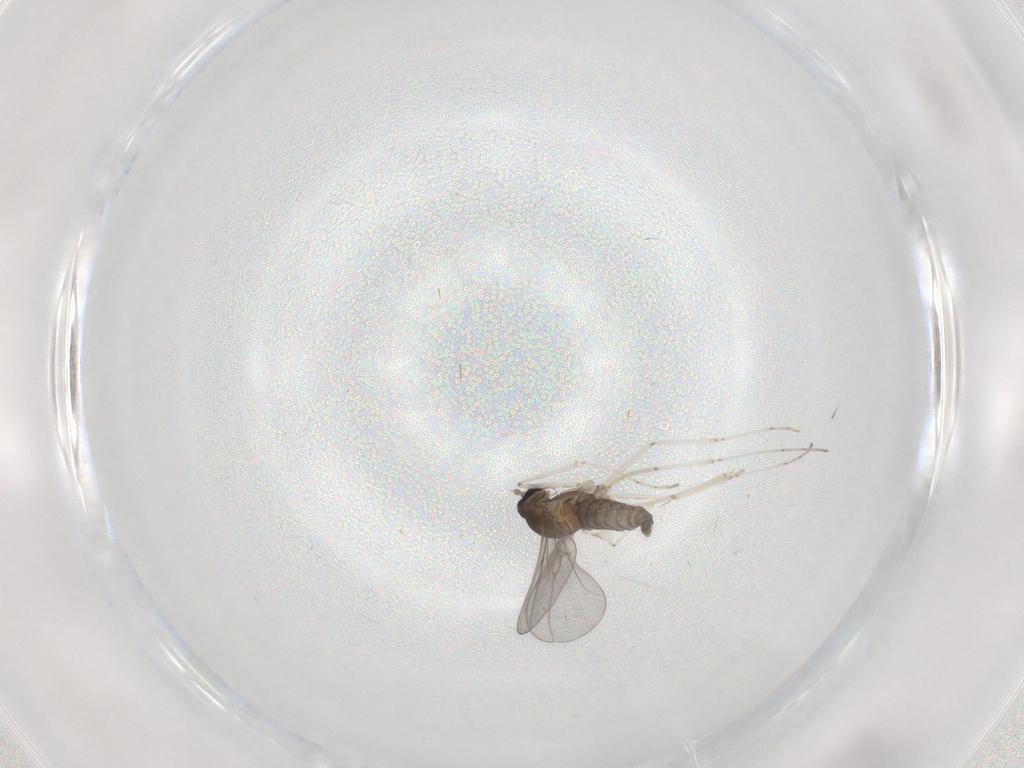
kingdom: Animalia
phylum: Arthropoda
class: Insecta
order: Diptera
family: Cecidomyiidae
